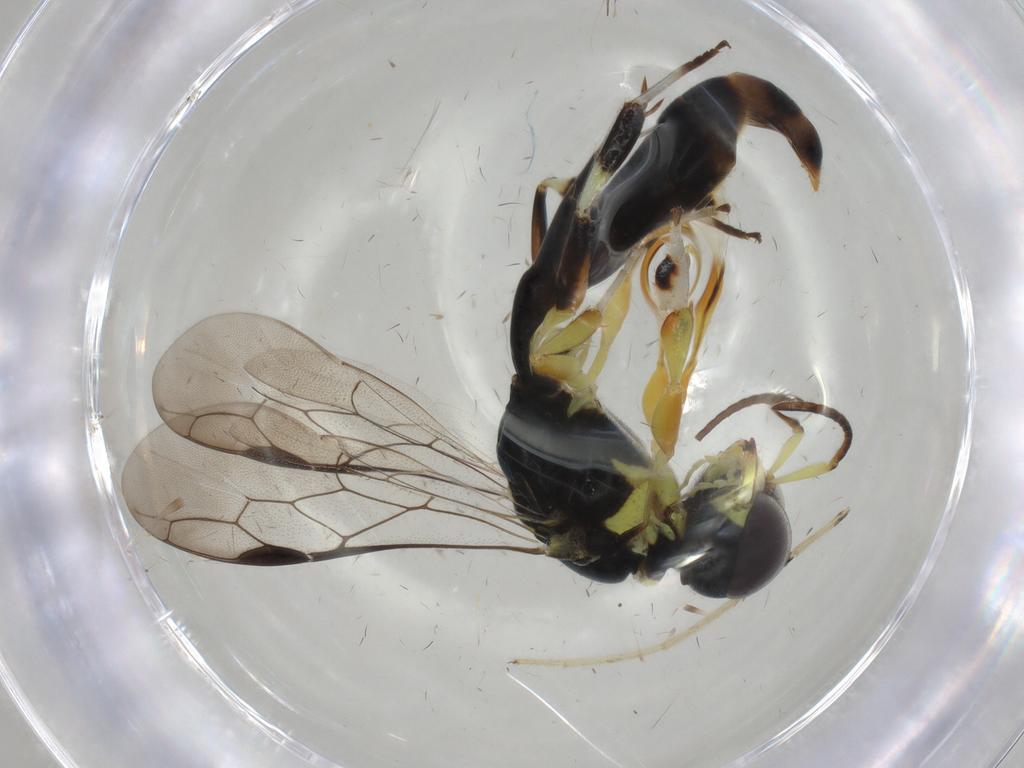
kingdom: Animalia
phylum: Arthropoda
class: Insecta
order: Hymenoptera
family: Crabronidae
